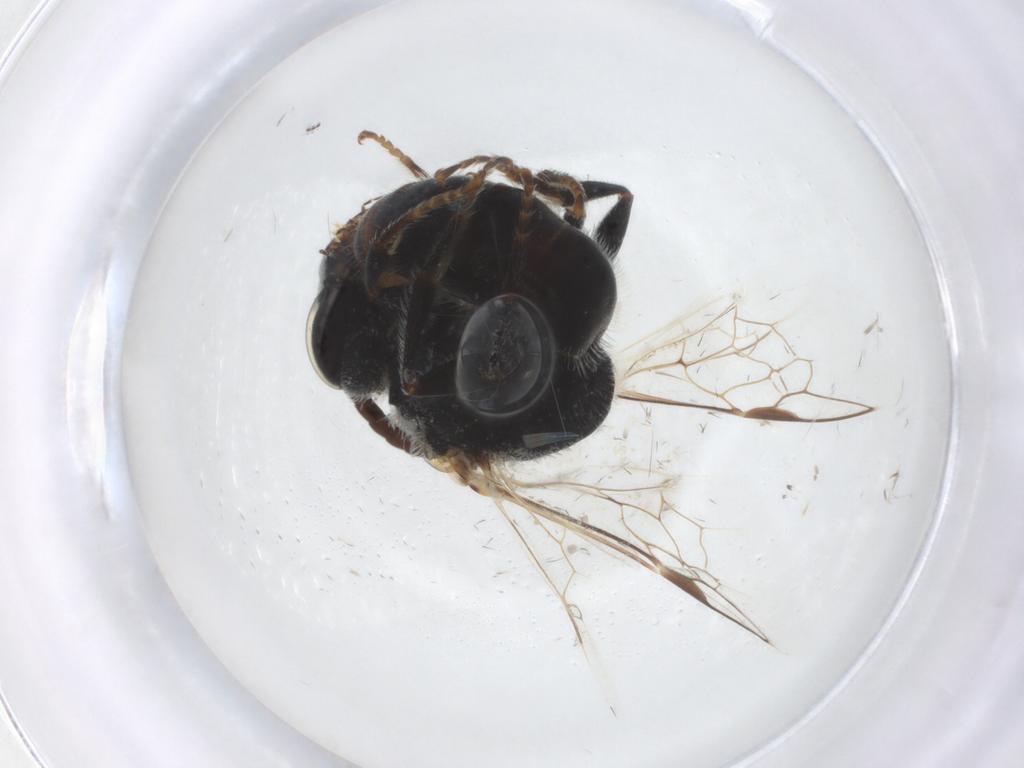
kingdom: Animalia
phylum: Arthropoda
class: Insecta
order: Hymenoptera
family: Halictidae
